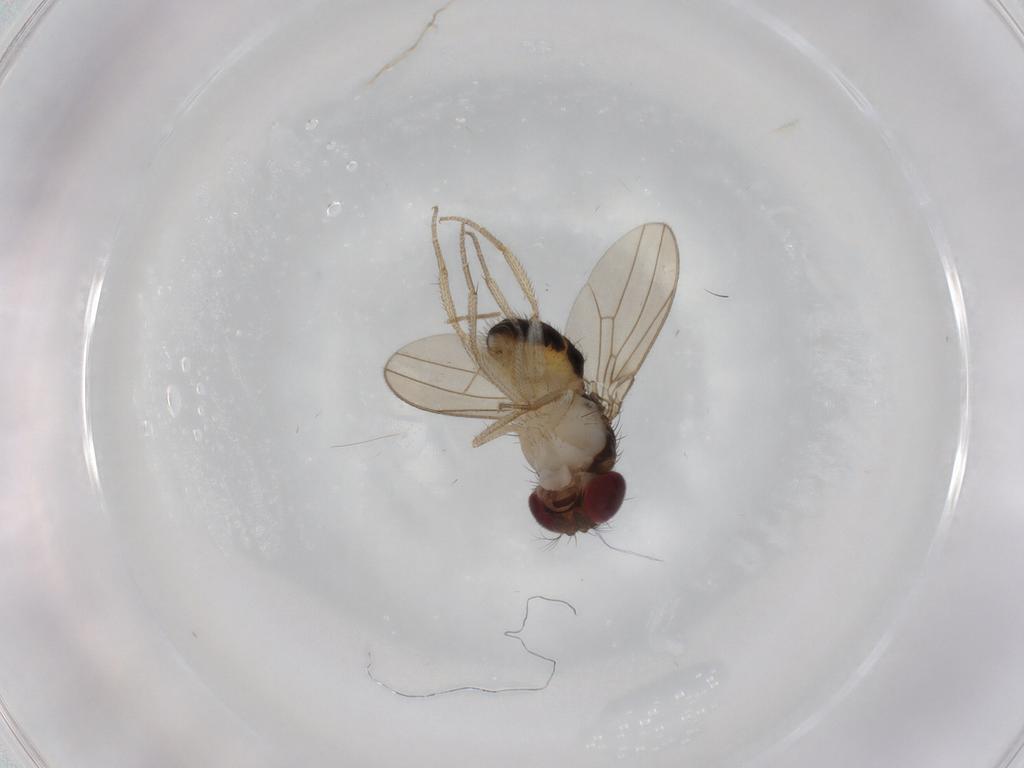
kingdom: Animalia
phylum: Arthropoda
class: Insecta
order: Diptera
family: Drosophilidae
